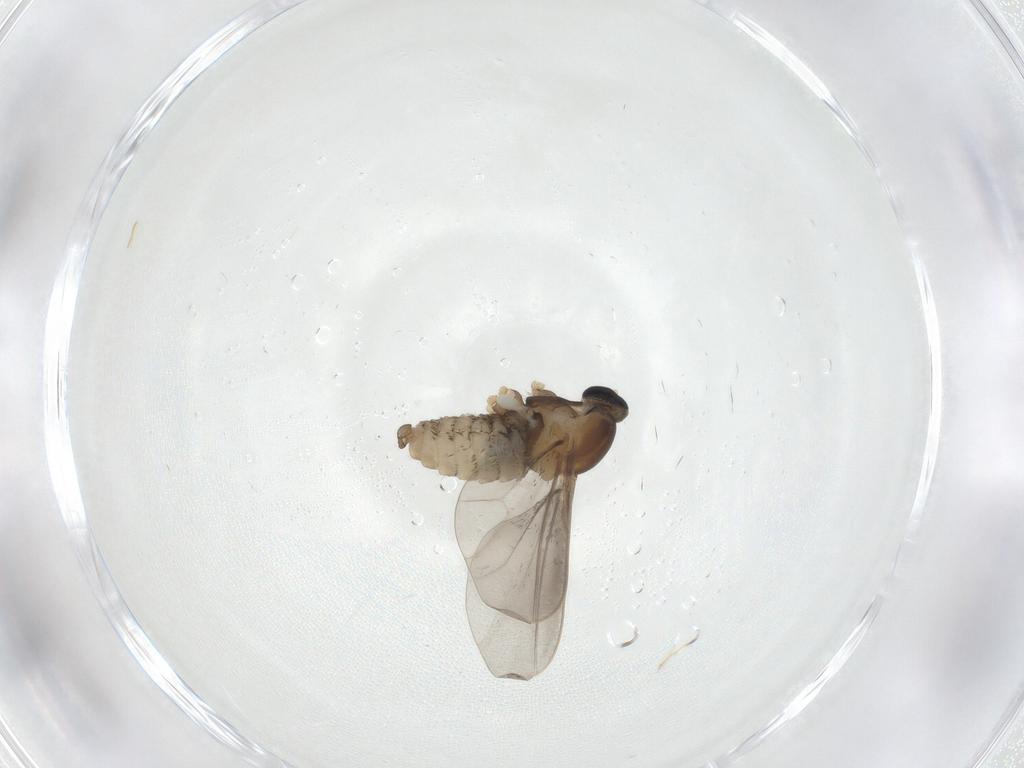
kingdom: Animalia
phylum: Arthropoda
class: Insecta
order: Diptera
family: Cecidomyiidae
